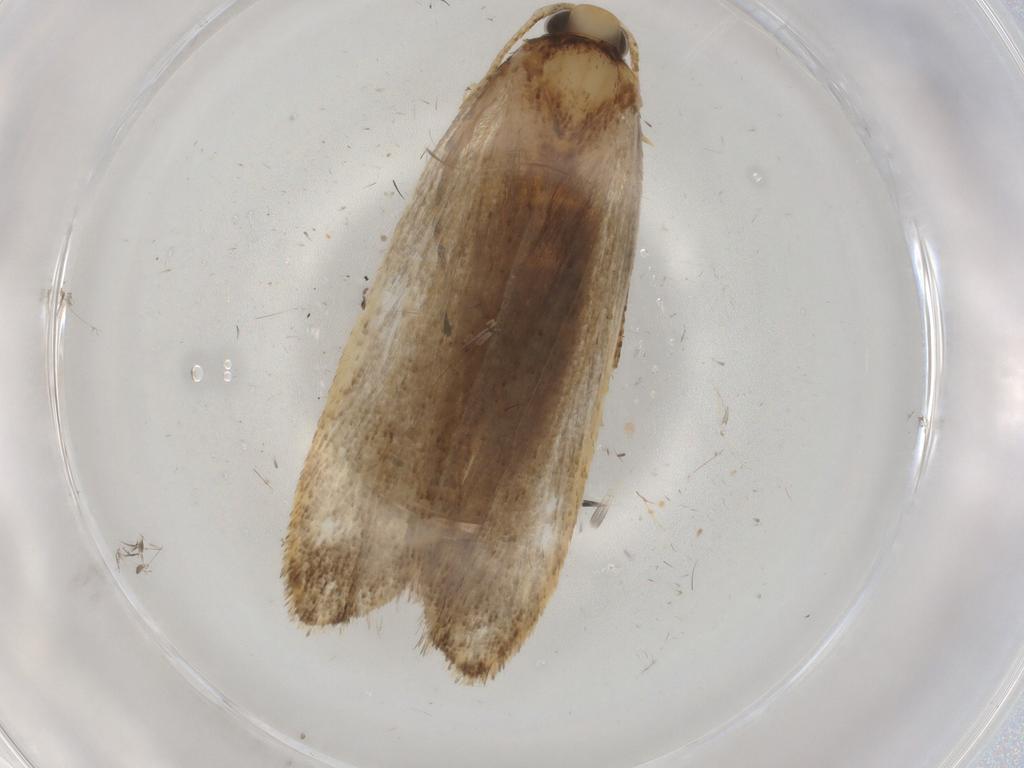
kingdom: Animalia
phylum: Arthropoda
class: Insecta
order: Lepidoptera
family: Autostichidae
